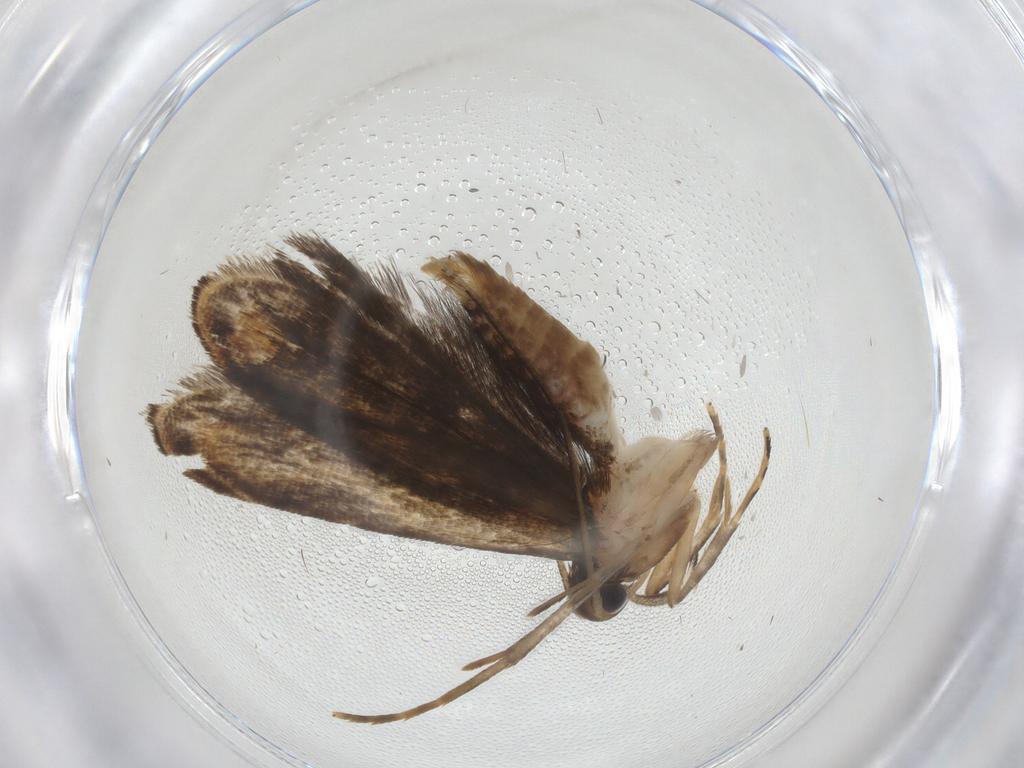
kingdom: Animalia
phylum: Arthropoda
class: Insecta
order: Lepidoptera
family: Gelechiidae
